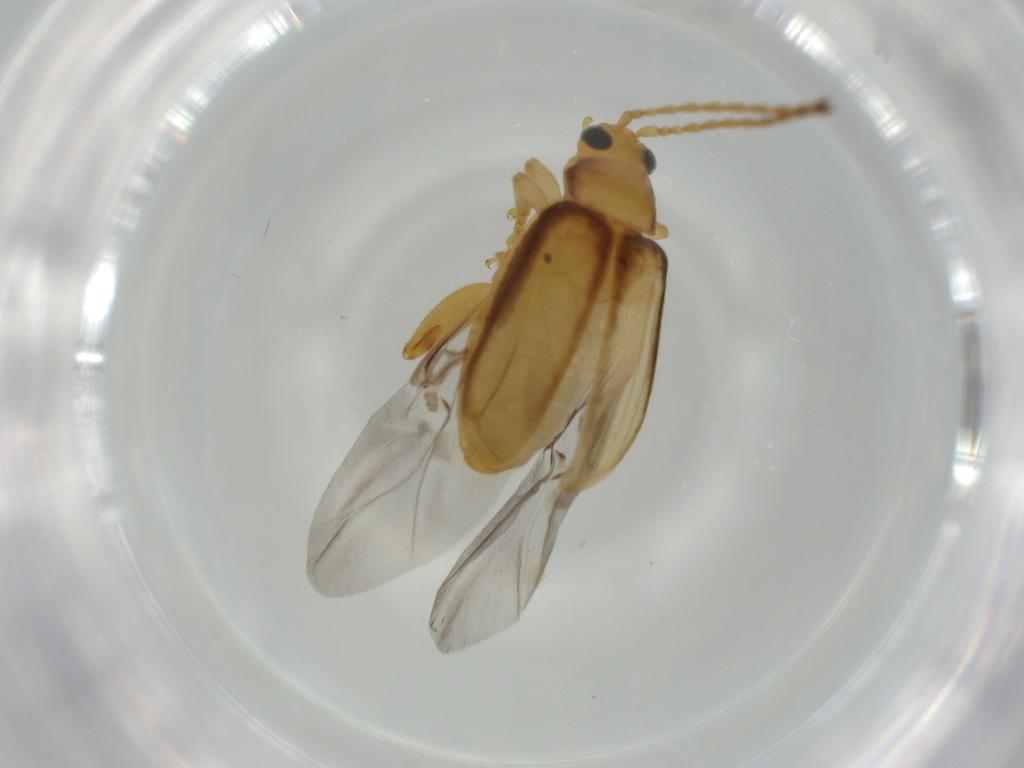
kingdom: Animalia
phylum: Arthropoda
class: Insecta
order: Coleoptera
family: Chrysomelidae
